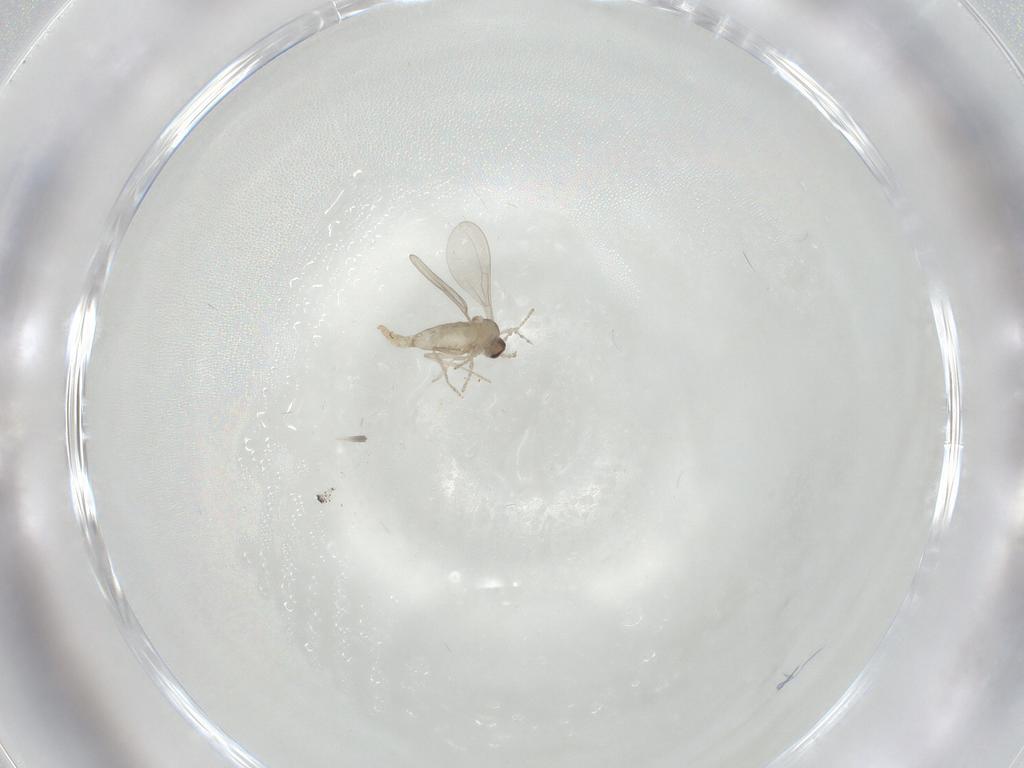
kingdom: Animalia
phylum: Arthropoda
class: Insecta
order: Diptera
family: Cecidomyiidae
